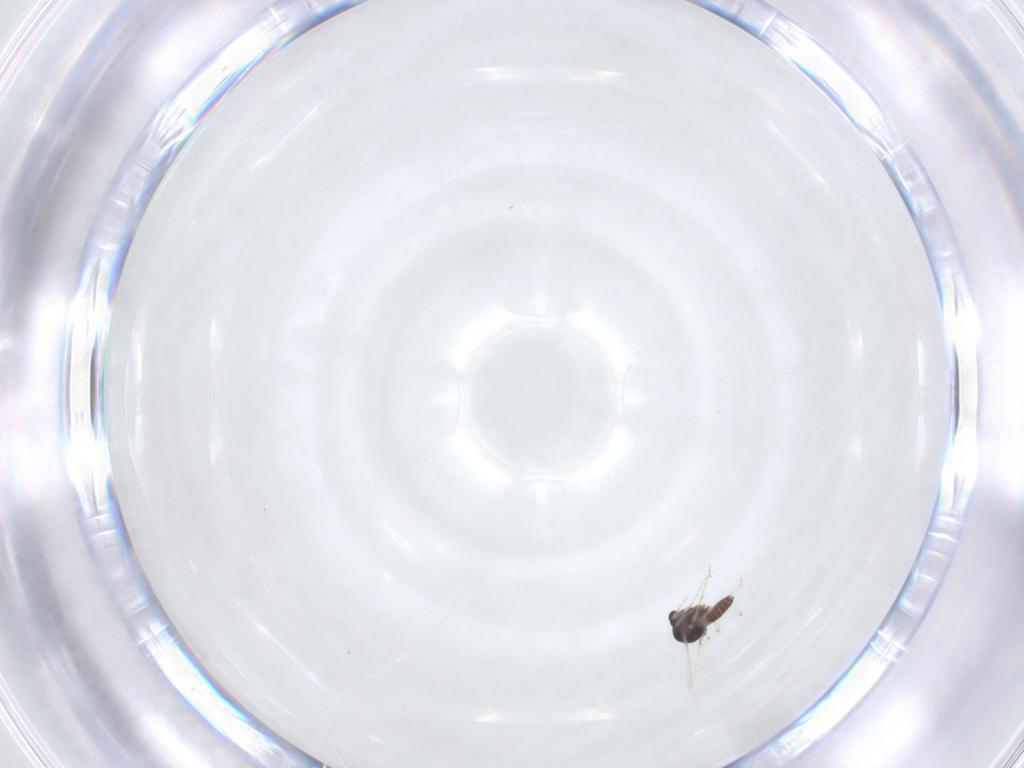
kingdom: Animalia
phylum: Arthropoda
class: Insecta
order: Diptera
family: Chironomidae
